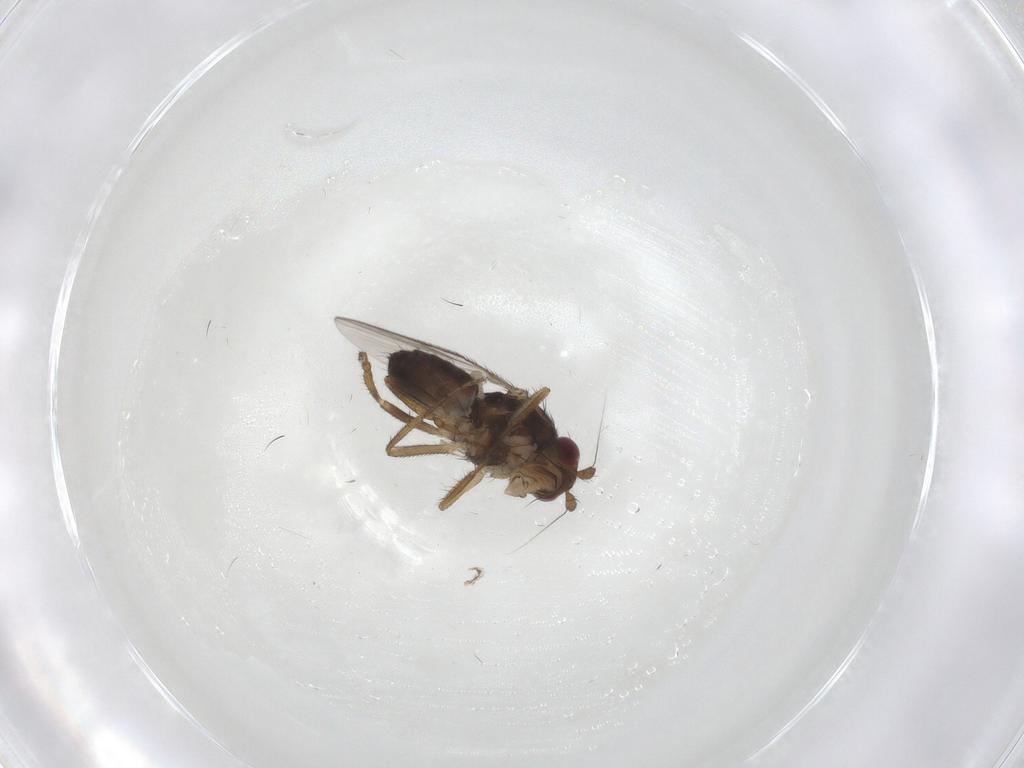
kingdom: Animalia
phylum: Arthropoda
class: Insecta
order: Diptera
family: Sphaeroceridae
